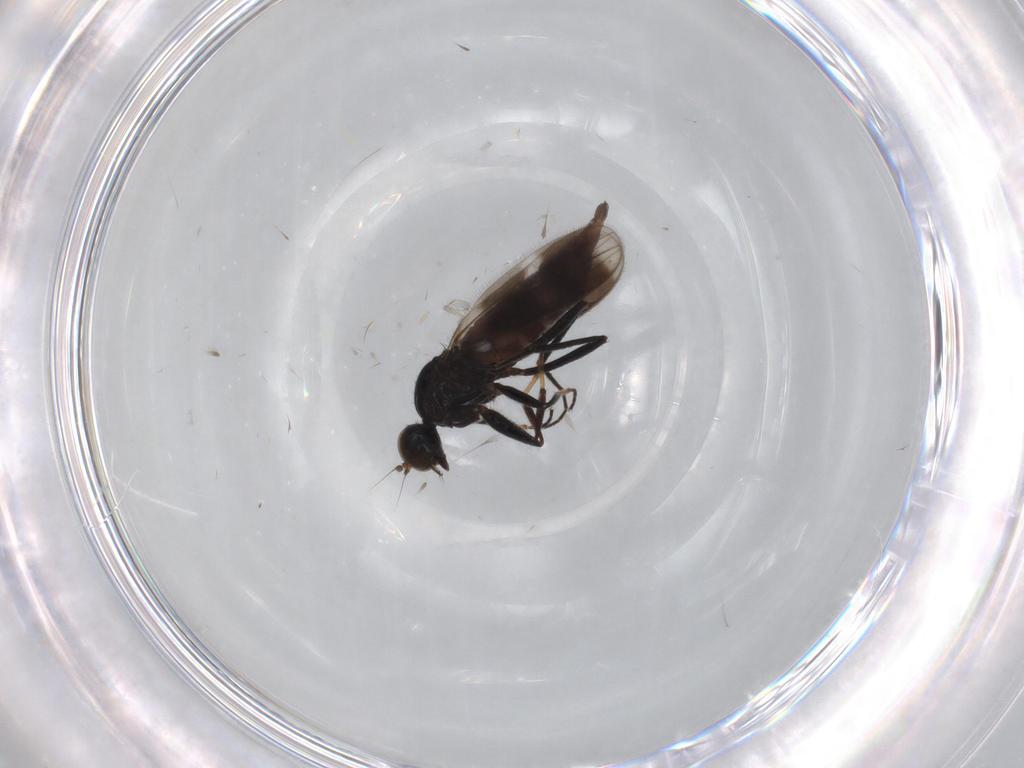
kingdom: Animalia
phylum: Arthropoda
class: Insecta
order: Diptera
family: Hybotidae
